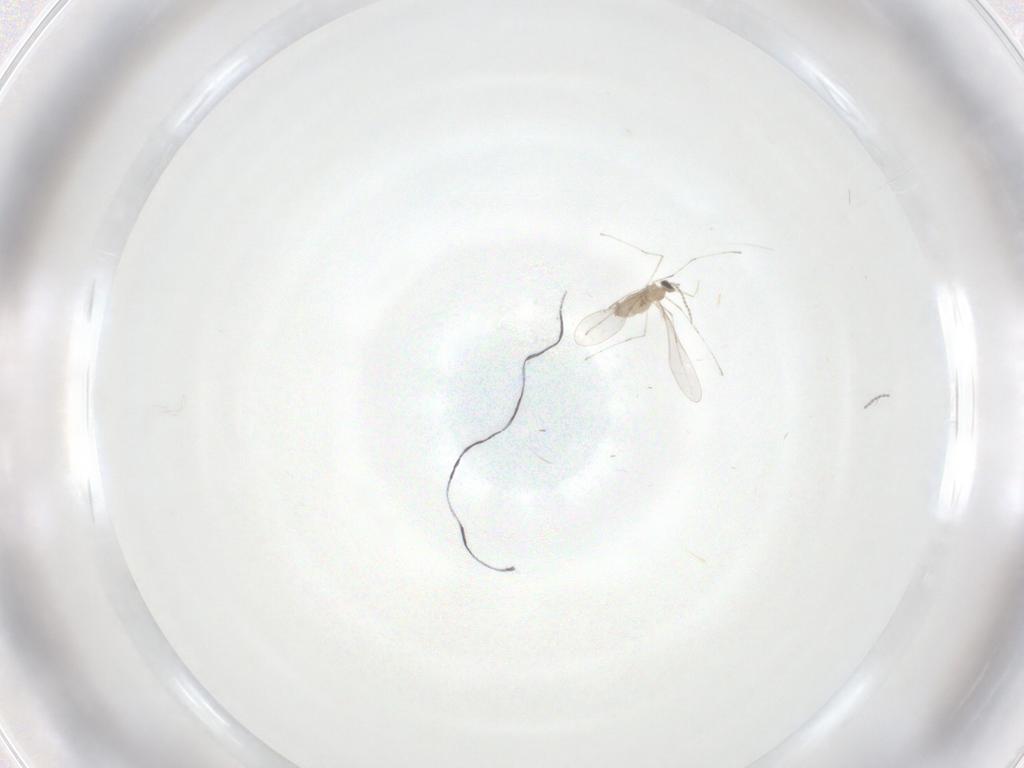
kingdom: Animalia
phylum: Arthropoda
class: Insecta
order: Diptera
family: Cecidomyiidae
